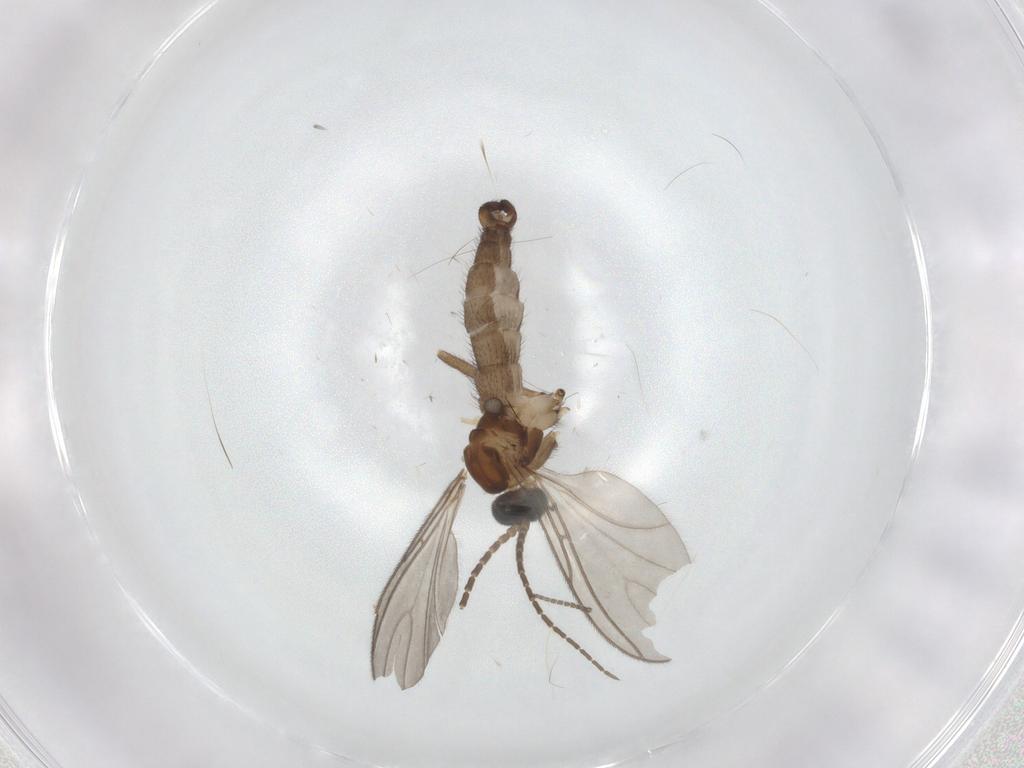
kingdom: Animalia
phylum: Arthropoda
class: Insecta
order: Diptera
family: Sciaridae
